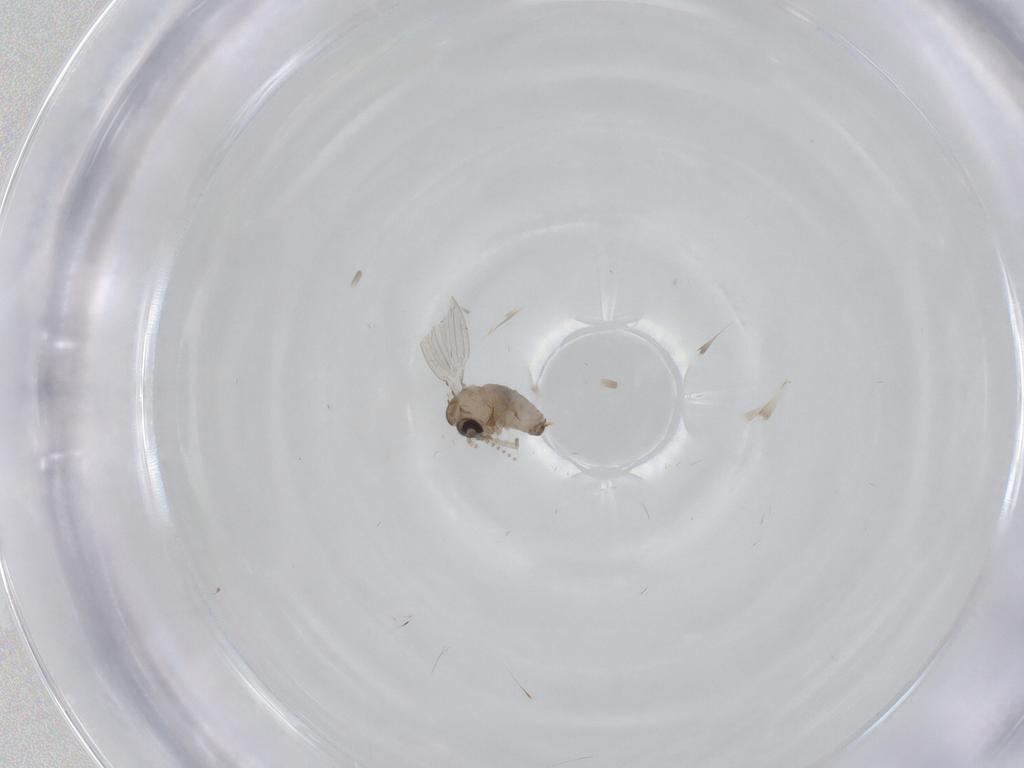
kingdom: Animalia
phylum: Arthropoda
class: Insecta
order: Diptera
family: Psychodidae
